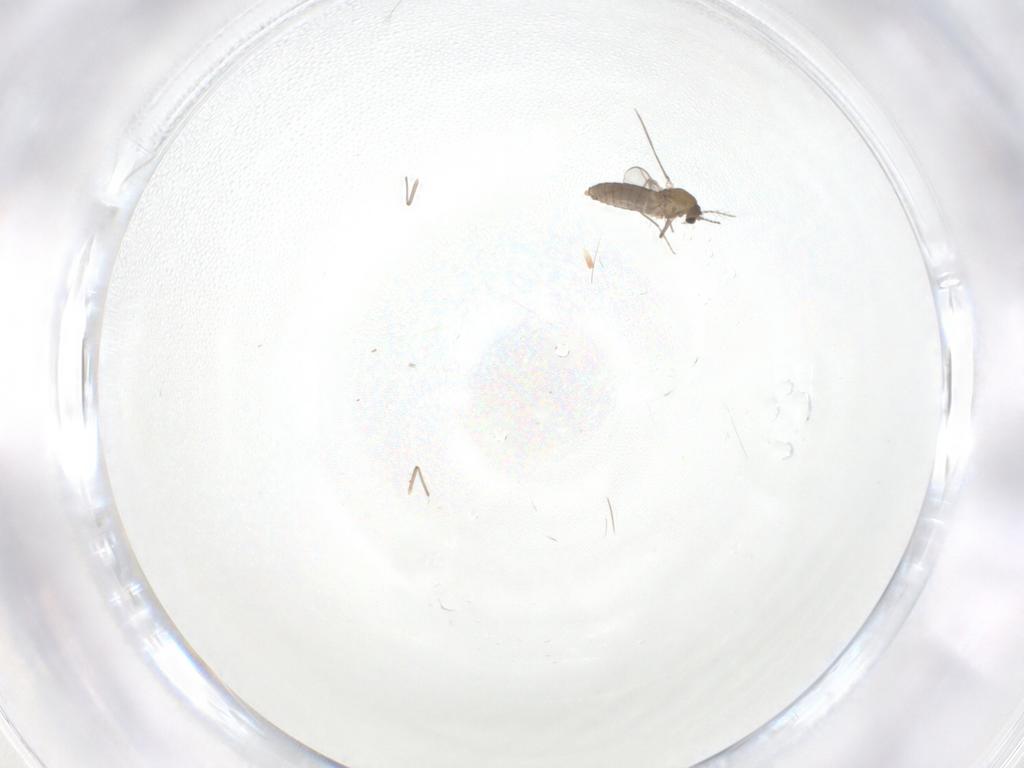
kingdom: Animalia
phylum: Arthropoda
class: Insecta
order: Diptera
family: Chironomidae
